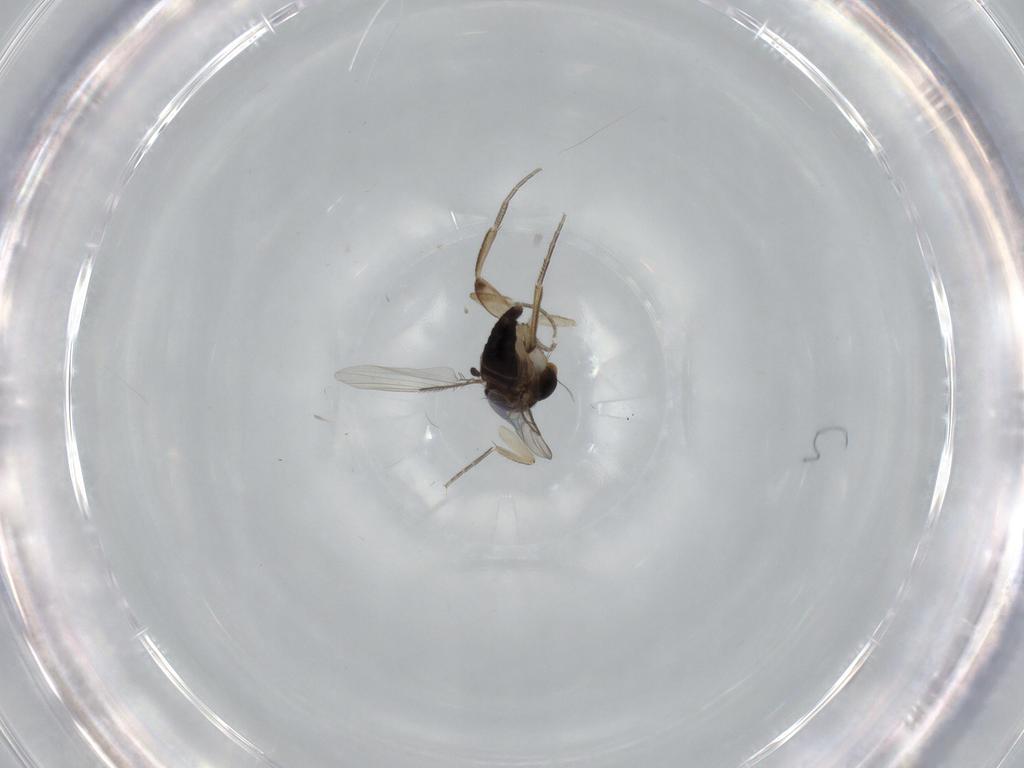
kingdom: Animalia
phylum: Arthropoda
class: Insecta
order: Diptera
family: Phoridae
